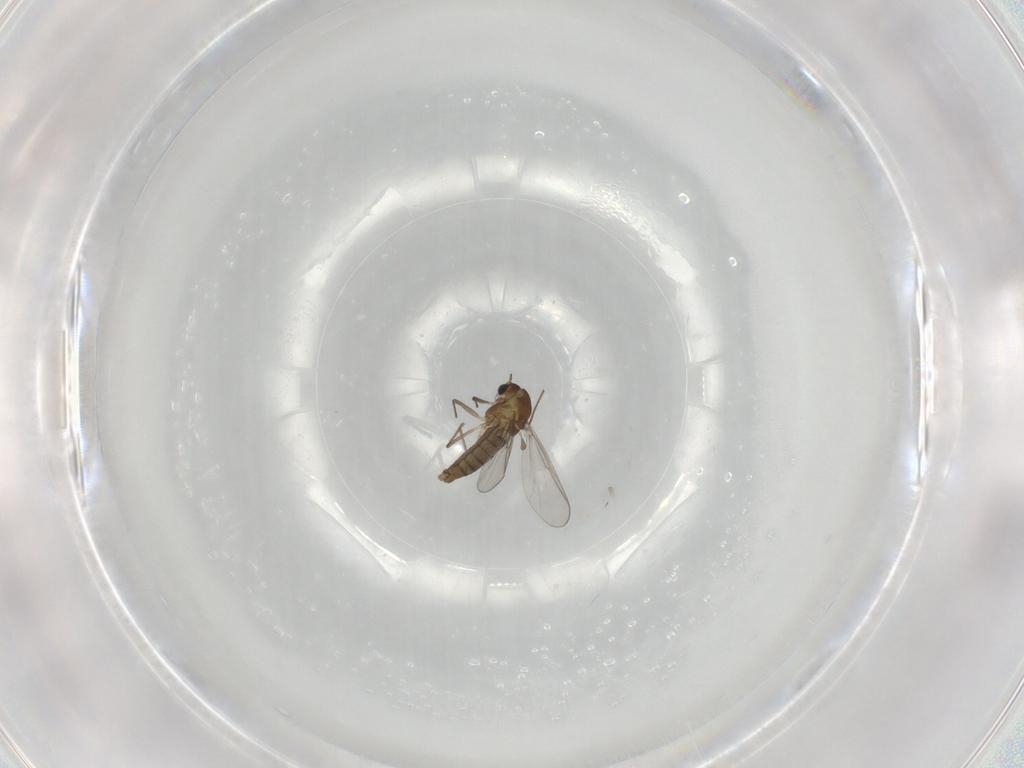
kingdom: Animalia
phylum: Arthropoda
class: Insecta
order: Diptera
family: Chironomidae
